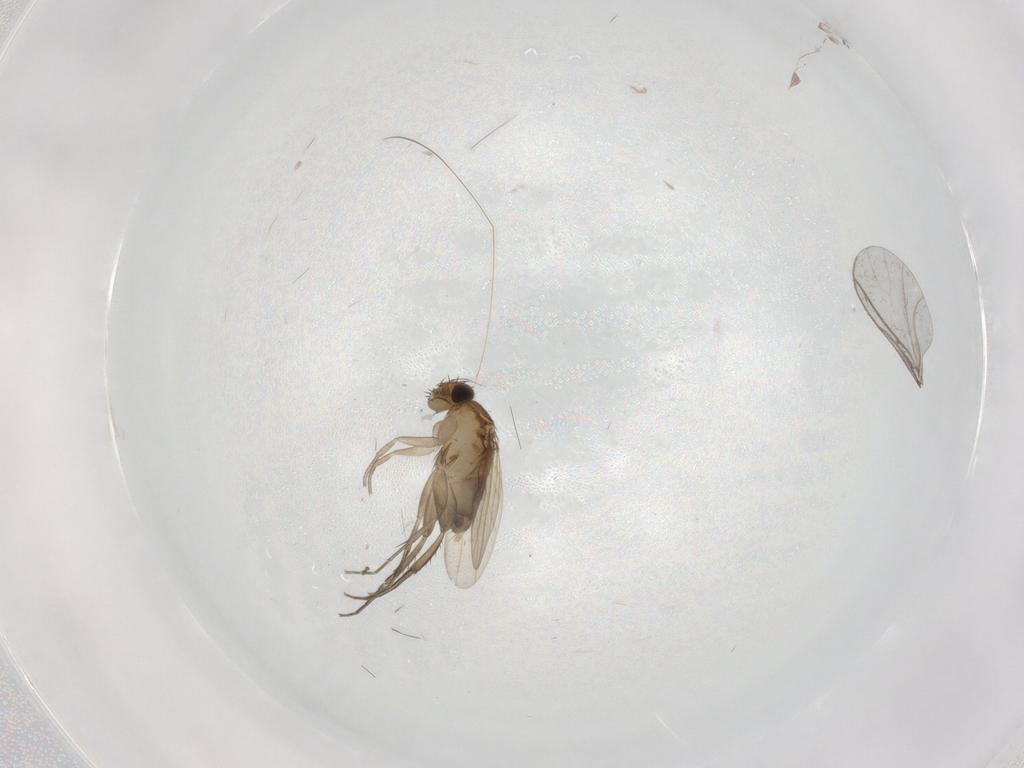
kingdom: Animalia
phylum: Arthropoda
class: Insecta
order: Diptera
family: Phoridae
